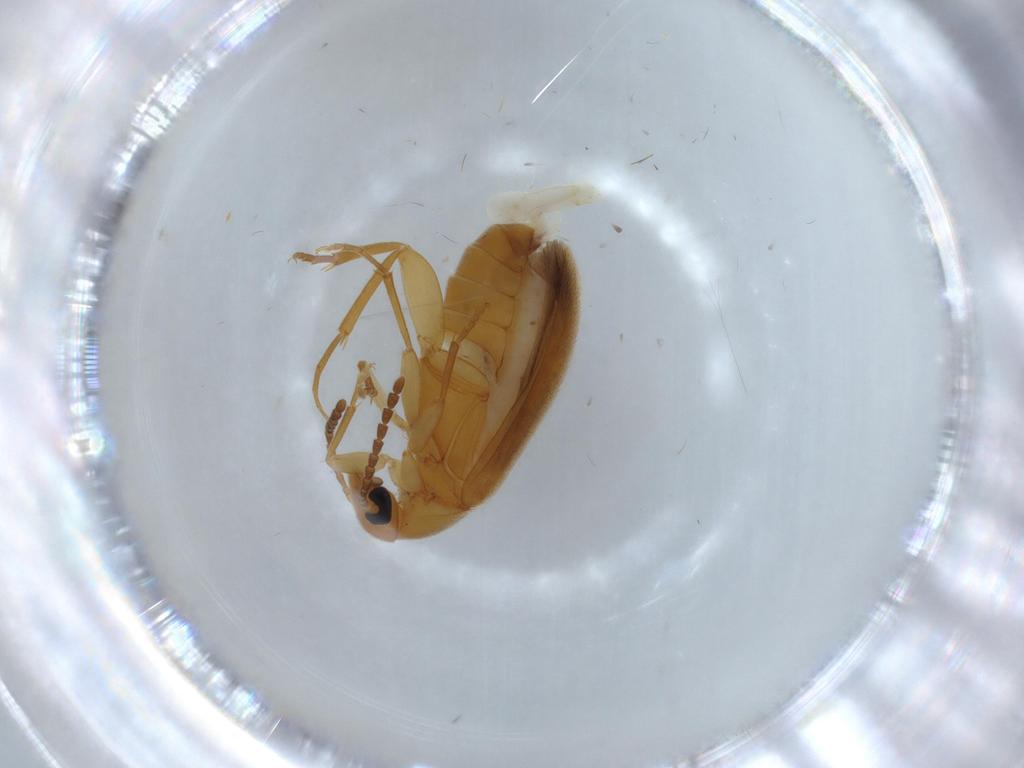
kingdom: Animalia
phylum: Arthropoda
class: Insecta
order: Coleoptera
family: Scraptiidae
